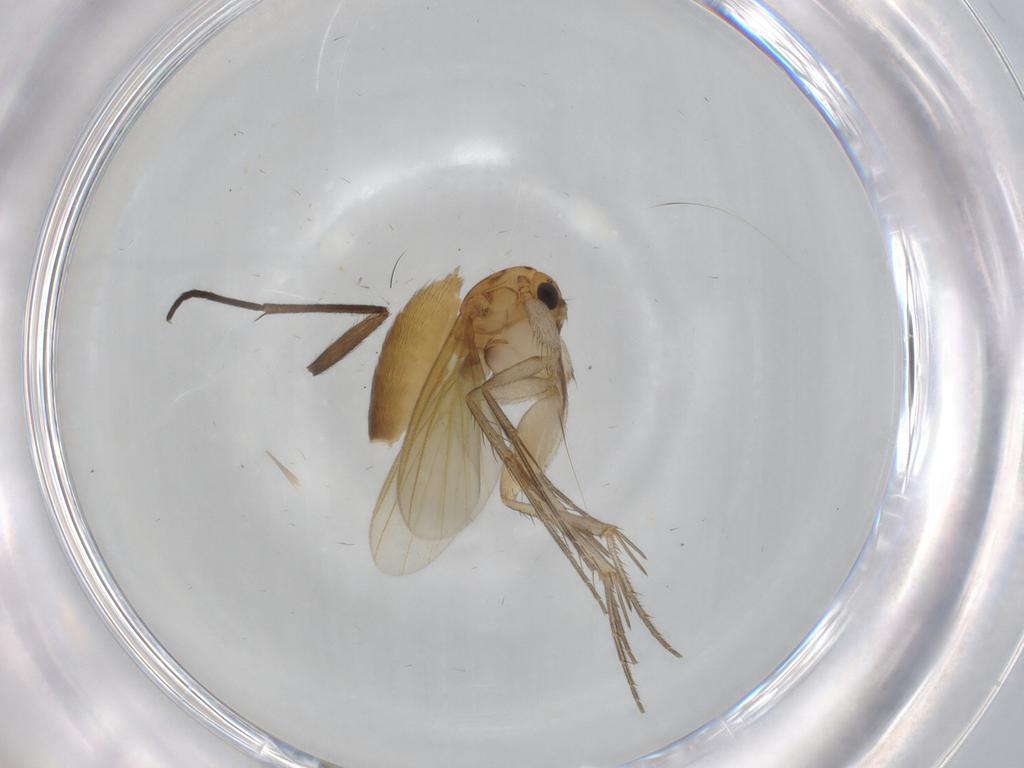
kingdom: Animalia
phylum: Arthropoda
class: Insecta
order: Diptera
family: Mycetophilidae
